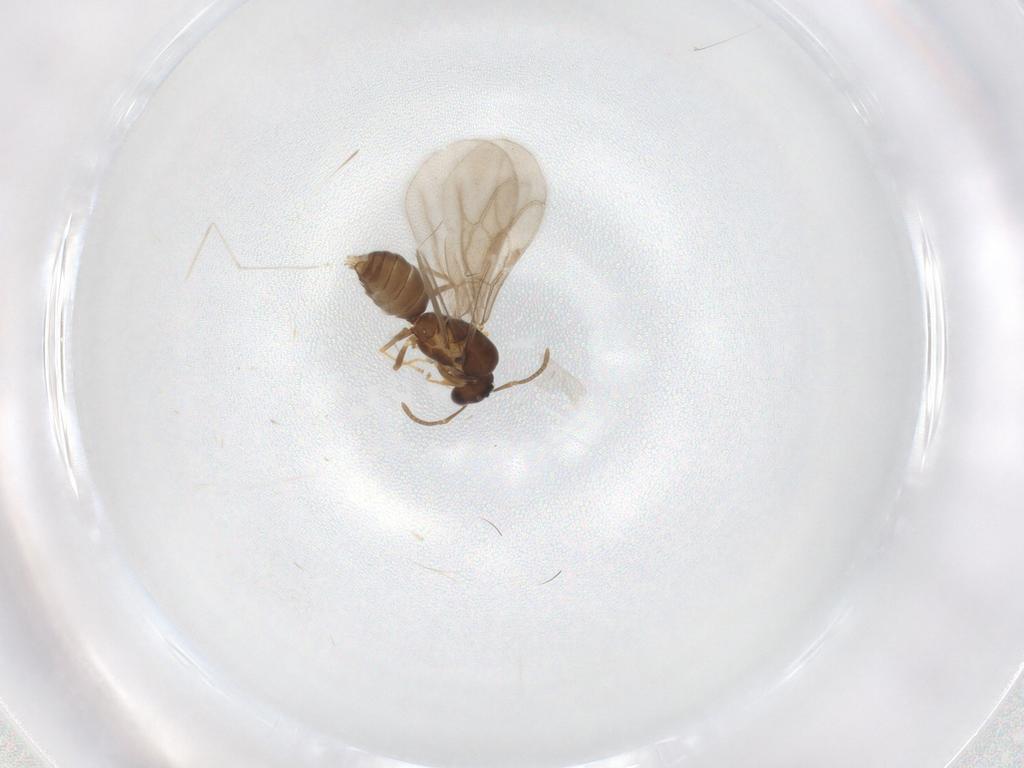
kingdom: Animalia
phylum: Arthropoda
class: Insecta
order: Hymenoptera
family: Formicidae
